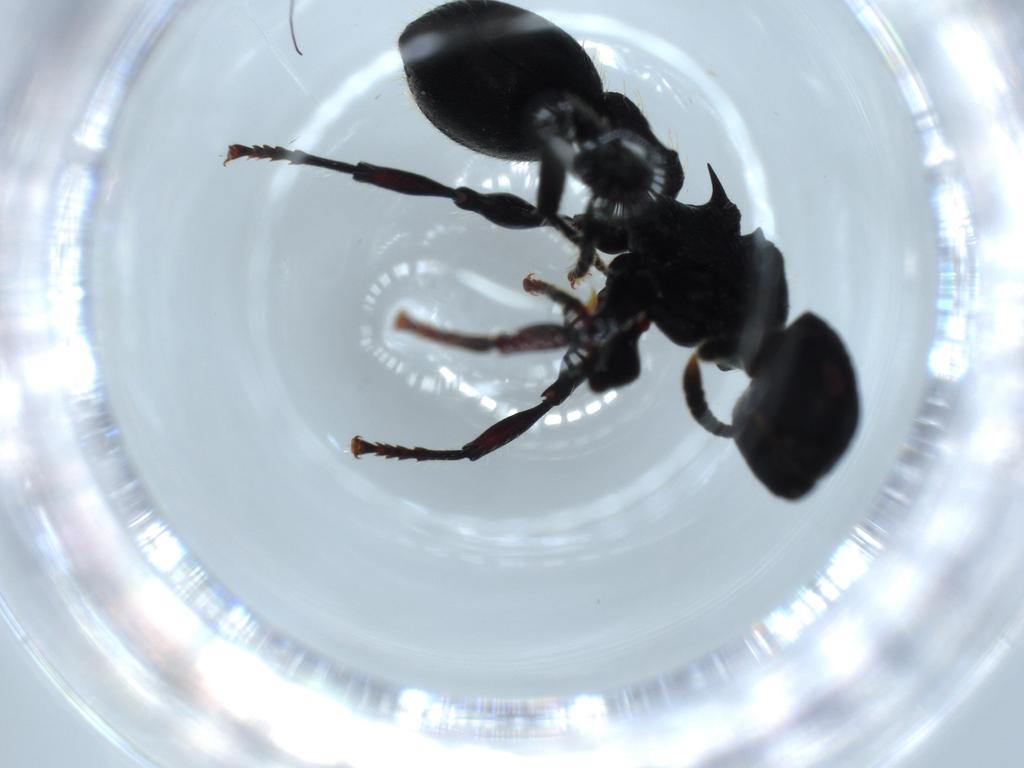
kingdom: Animalia
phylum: Arthropoda
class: Insecta
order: Hymenoptera
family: Formicidae
